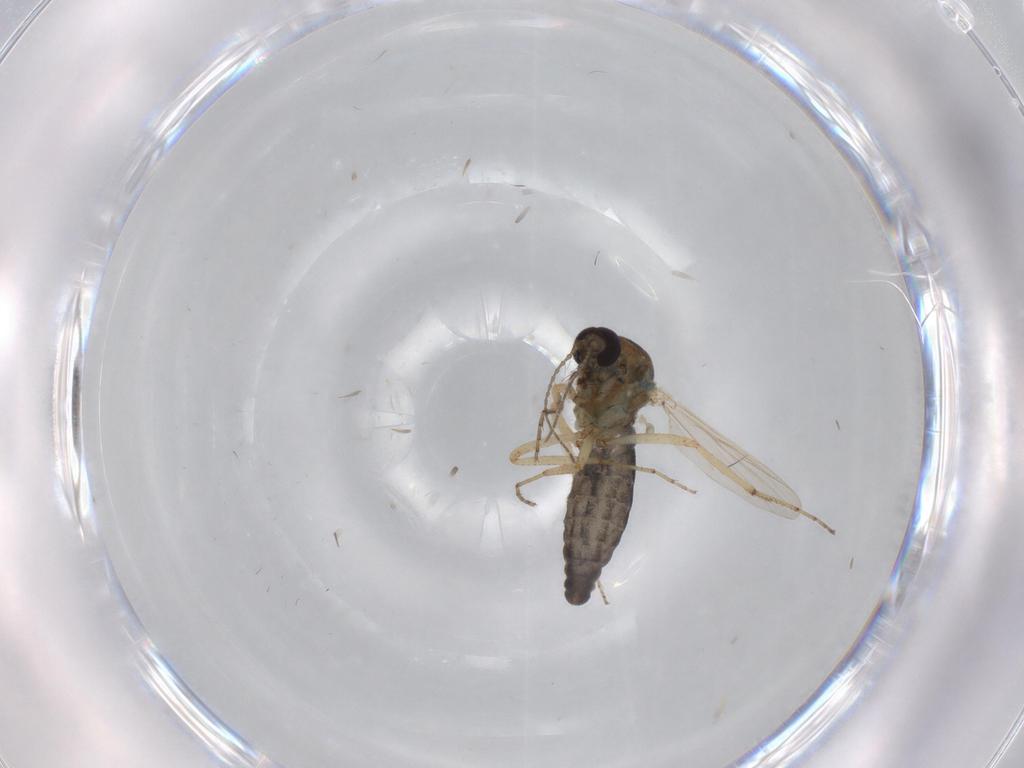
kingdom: Animalia
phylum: Arthropoda
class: Insecta
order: Diptera
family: Ceratopogonidae
